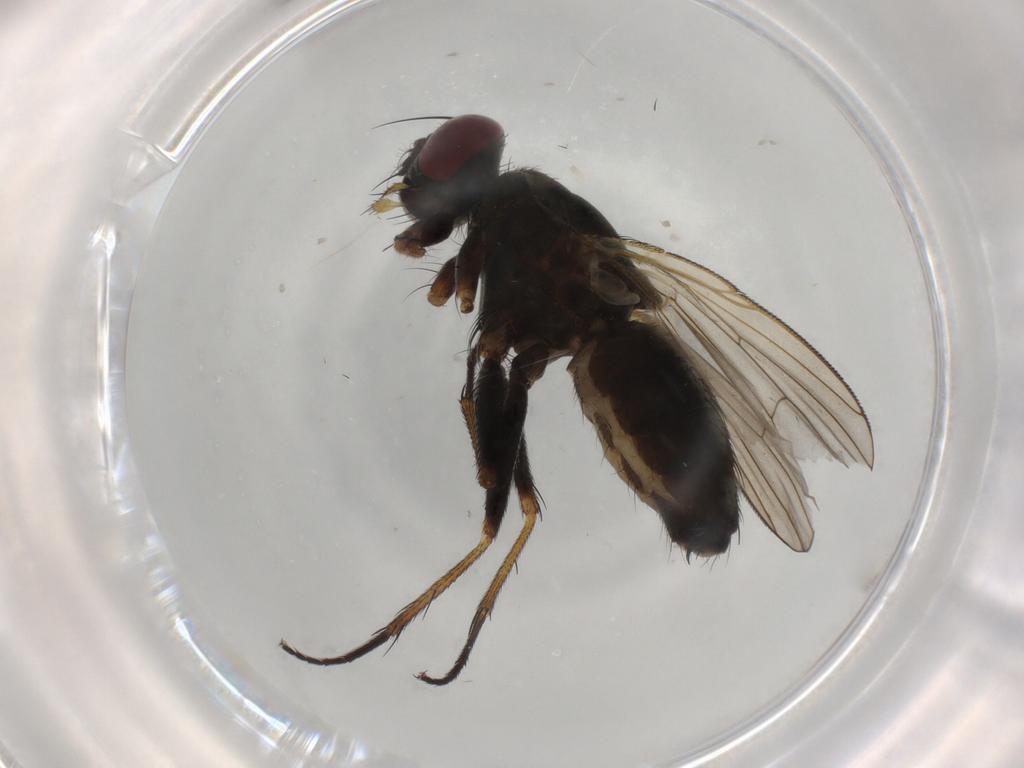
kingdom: Animalia
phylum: Arthropoda
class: Insecta
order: Diptera
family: Muscidae
